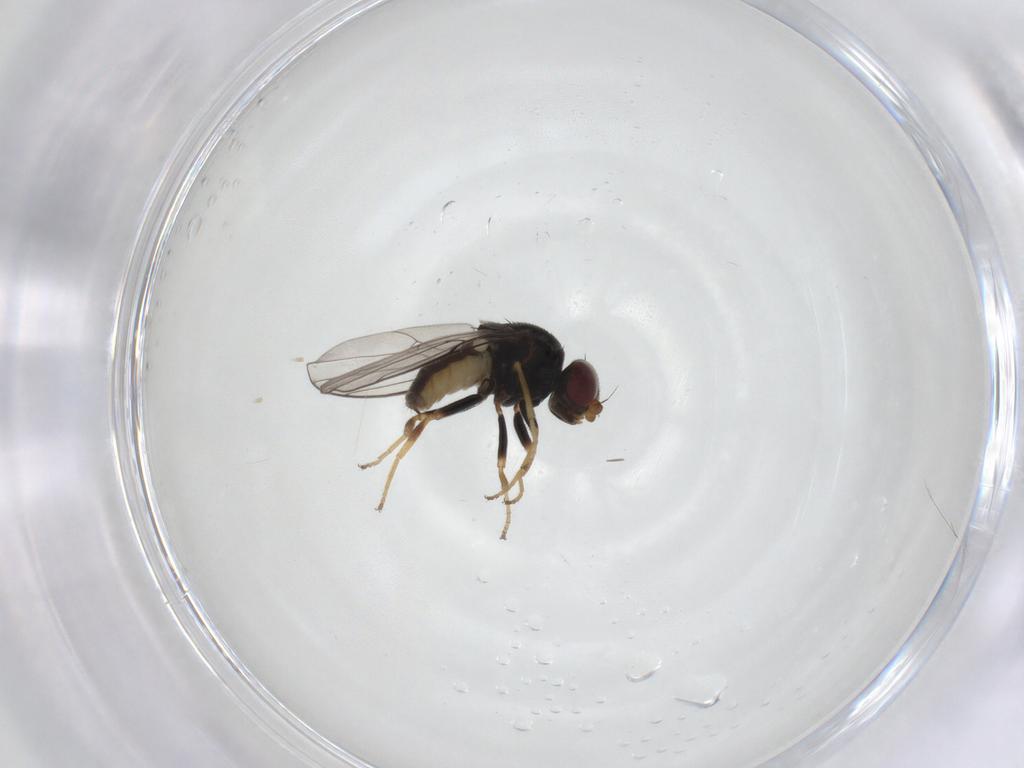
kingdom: Animalia
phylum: Arthropoda
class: Insecta
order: Diptera
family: Chloropidae
